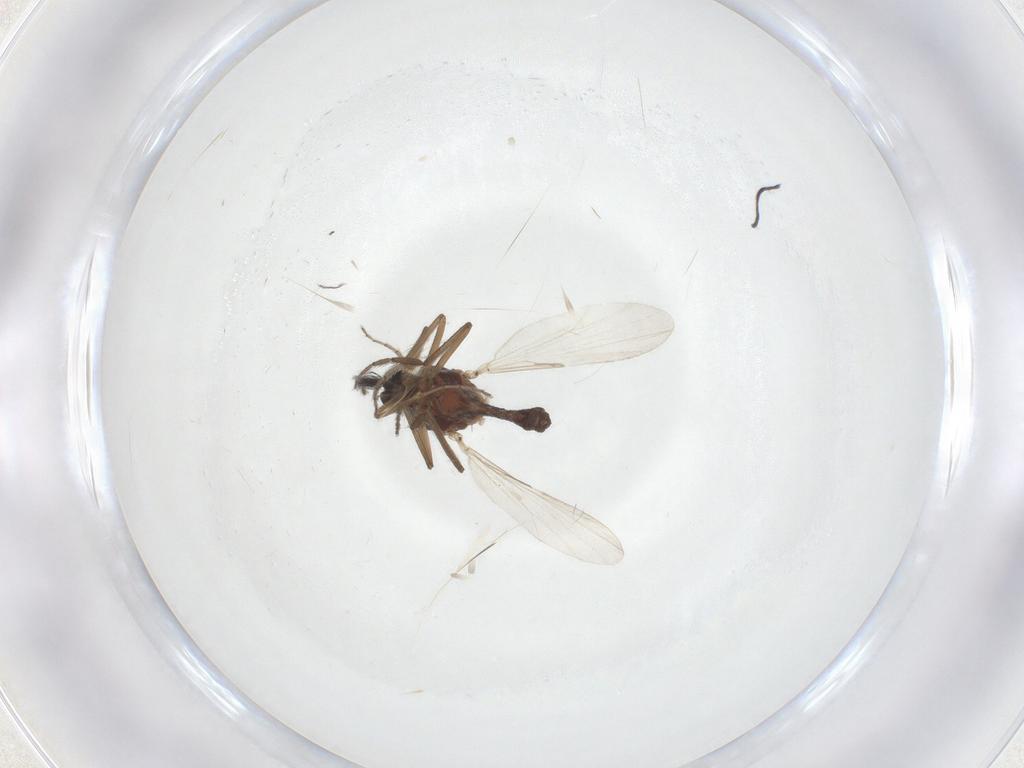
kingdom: Animalia
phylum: Arthropoda
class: Insecta
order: Diptera
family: Ceratopogonidae
